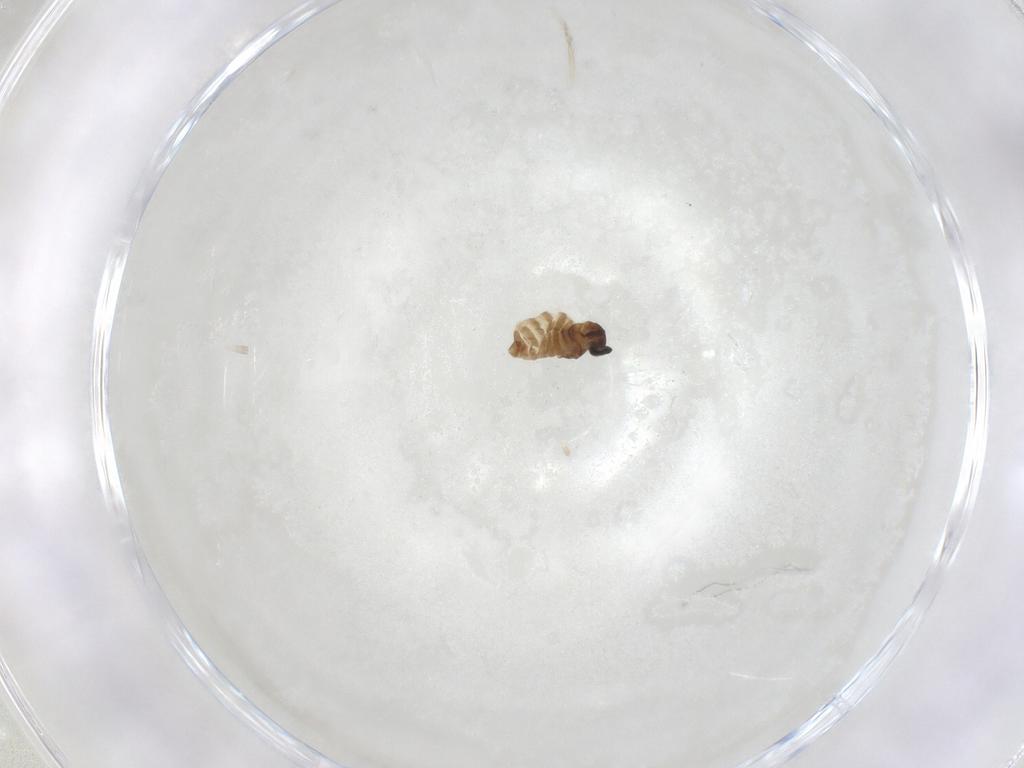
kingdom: Animalia
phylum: Arthropoda
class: Insecta
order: Diptera
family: Cecidomyiidae
